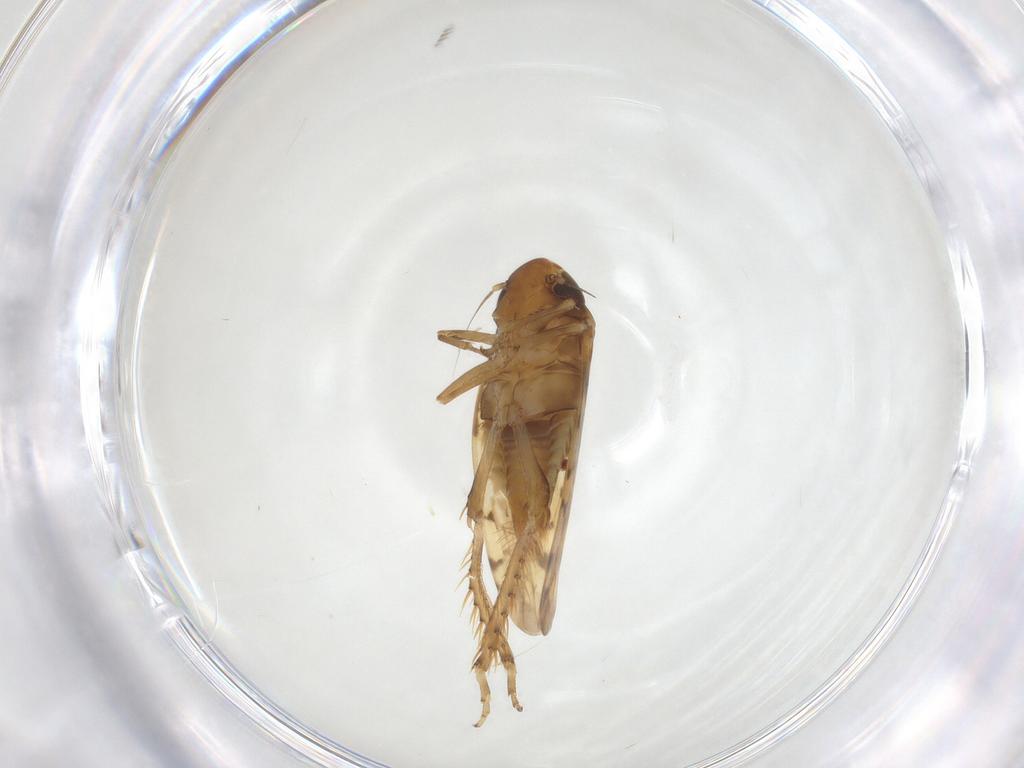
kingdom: Animalia
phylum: Arthropoda
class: Insecta
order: Hemiptera
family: Cicadellidae
